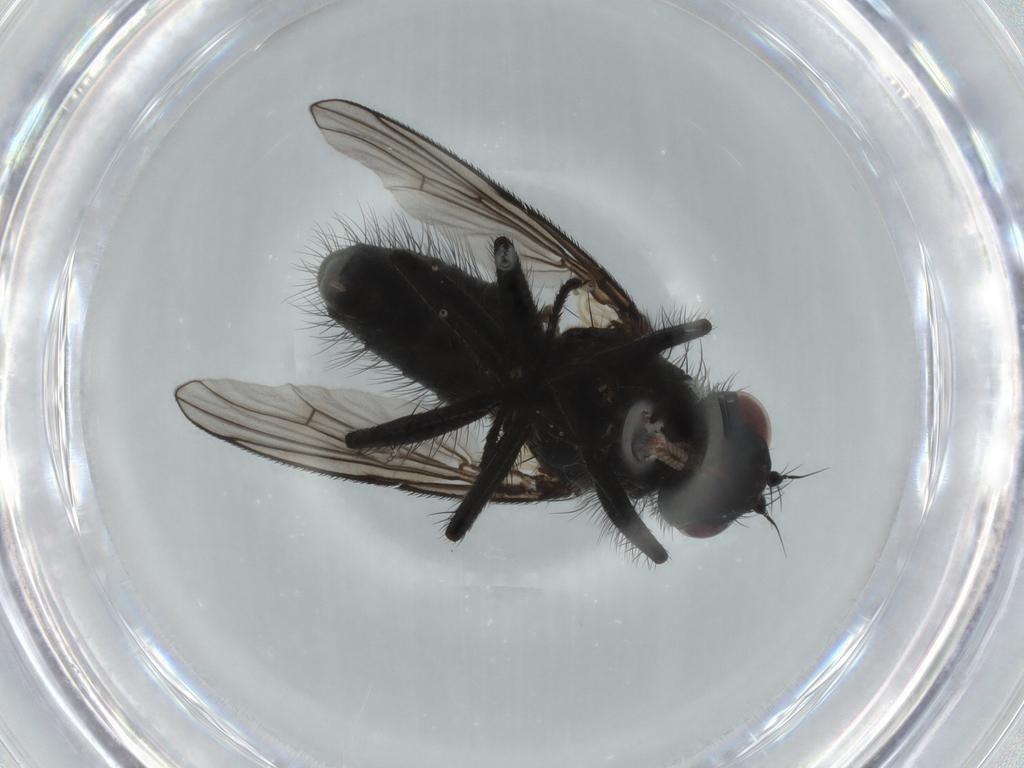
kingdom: Animalia
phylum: Arthropoda
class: Insecta
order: Diptera
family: Muscidae
